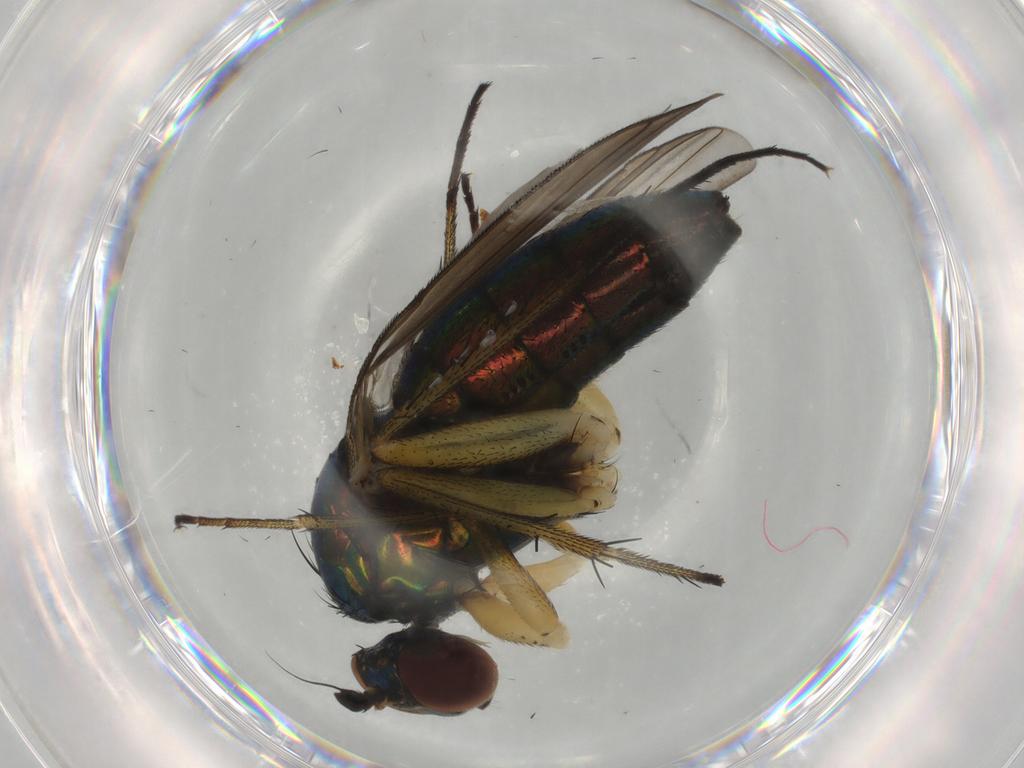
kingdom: Animalia
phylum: Arthropoda
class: Insecta
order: Diptera
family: Dolichopodidae
